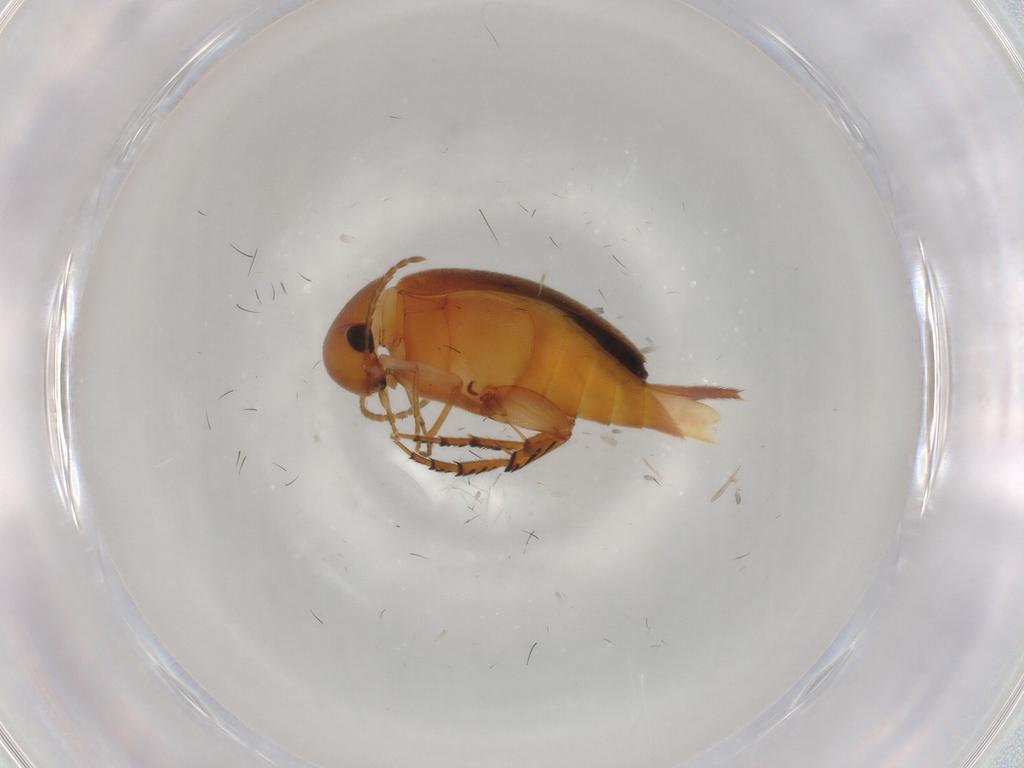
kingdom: Animalia
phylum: Arthropoda
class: Insecta
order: Coleoptera
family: Mordellidae
